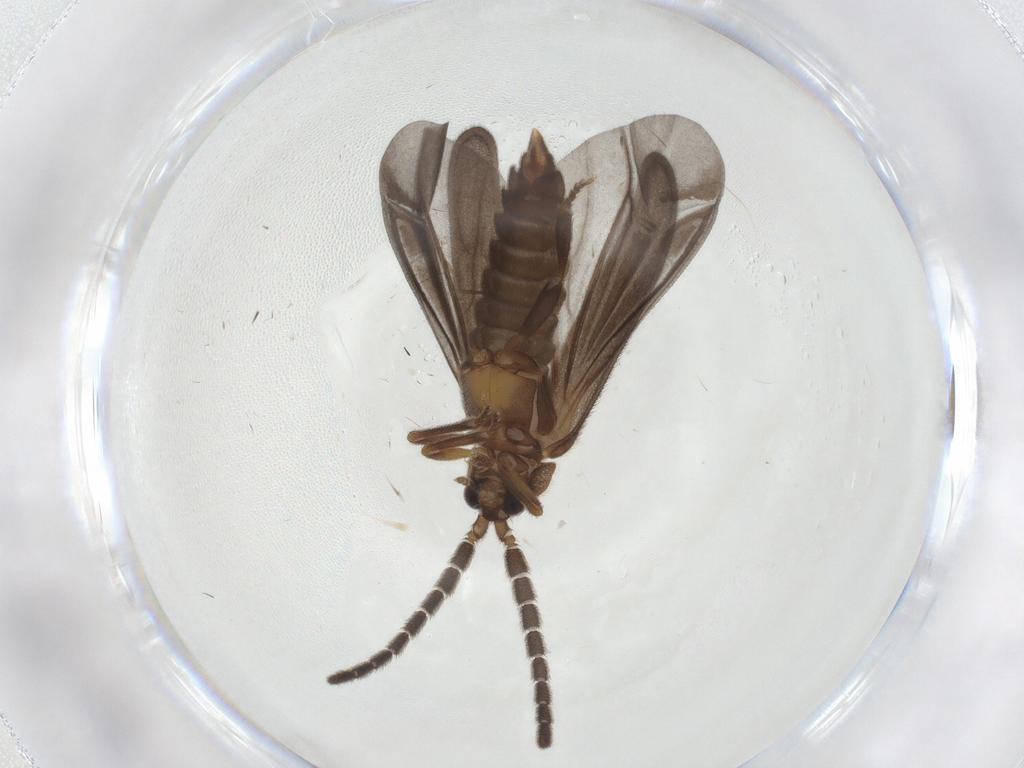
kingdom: Animalia
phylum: Arthropoda
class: Insecta
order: Coleoptera
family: Lycidae
